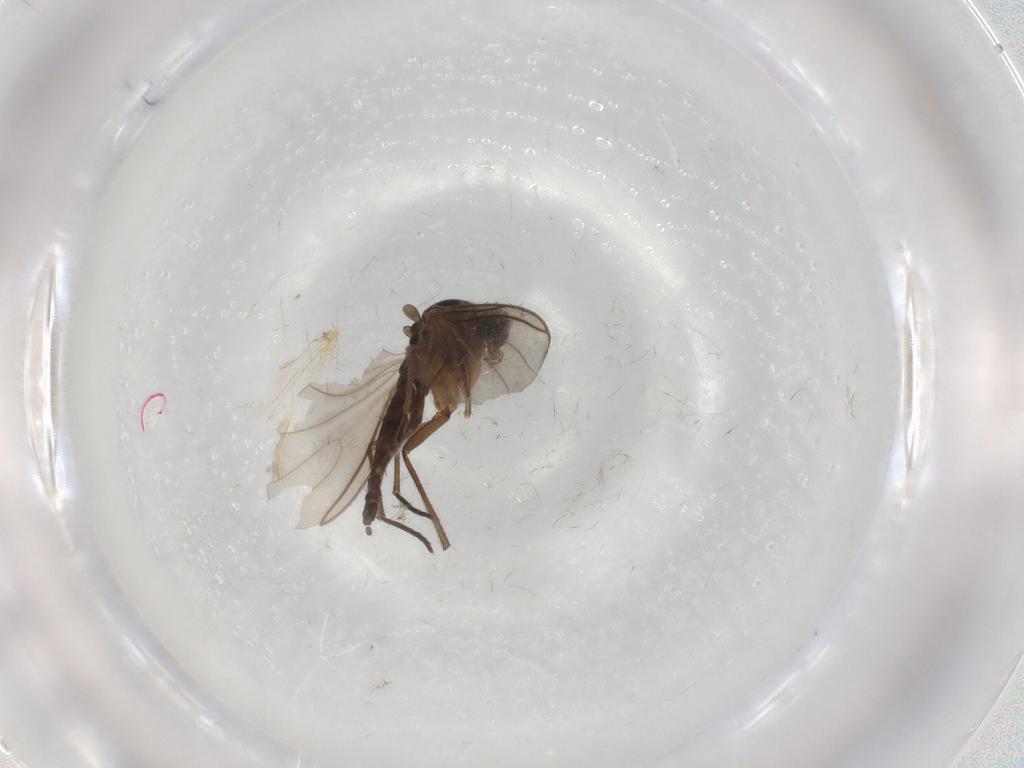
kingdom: Animalia
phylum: Arthropoda
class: Insecta
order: Diptera
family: Sciaridae
